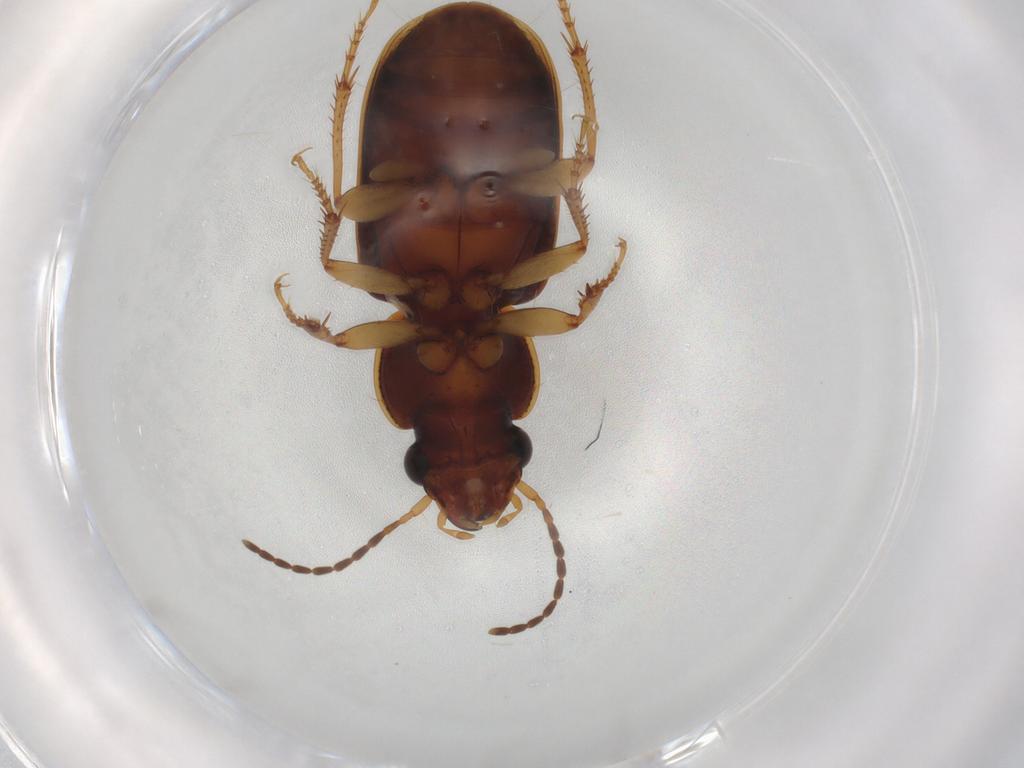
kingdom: Animalia
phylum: Arthropoda
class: Insecta
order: Coleoptera
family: Carabidae
